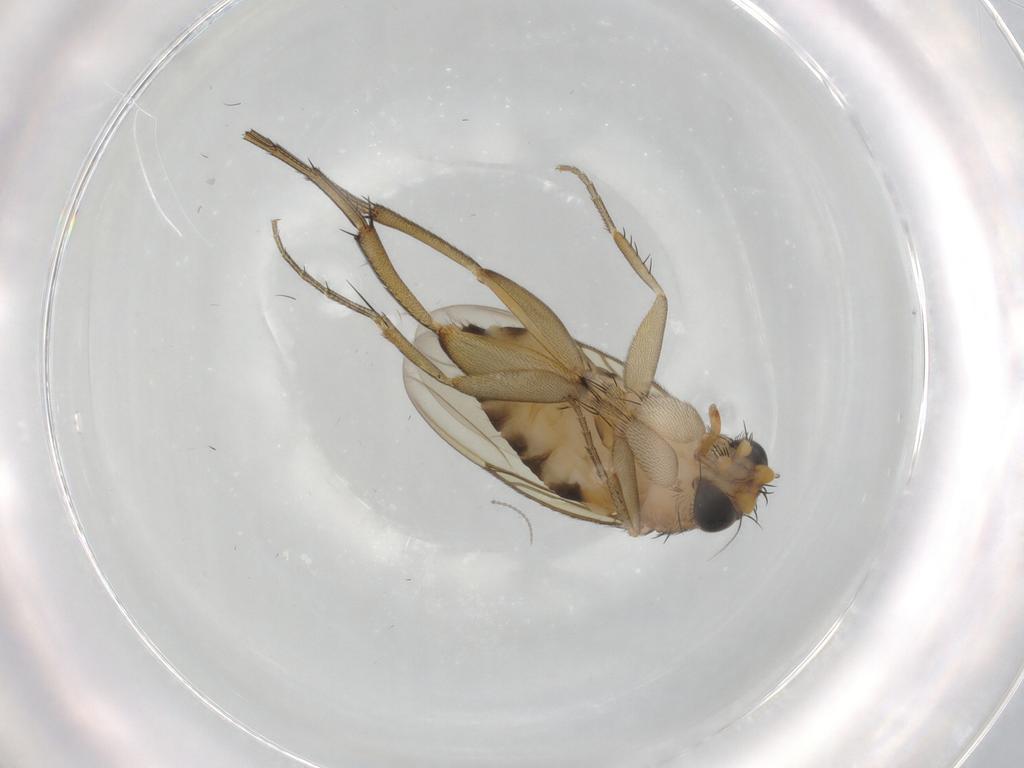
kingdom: Animalia
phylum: Arthropoda
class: Insecta
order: Diptera
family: Phoridae
